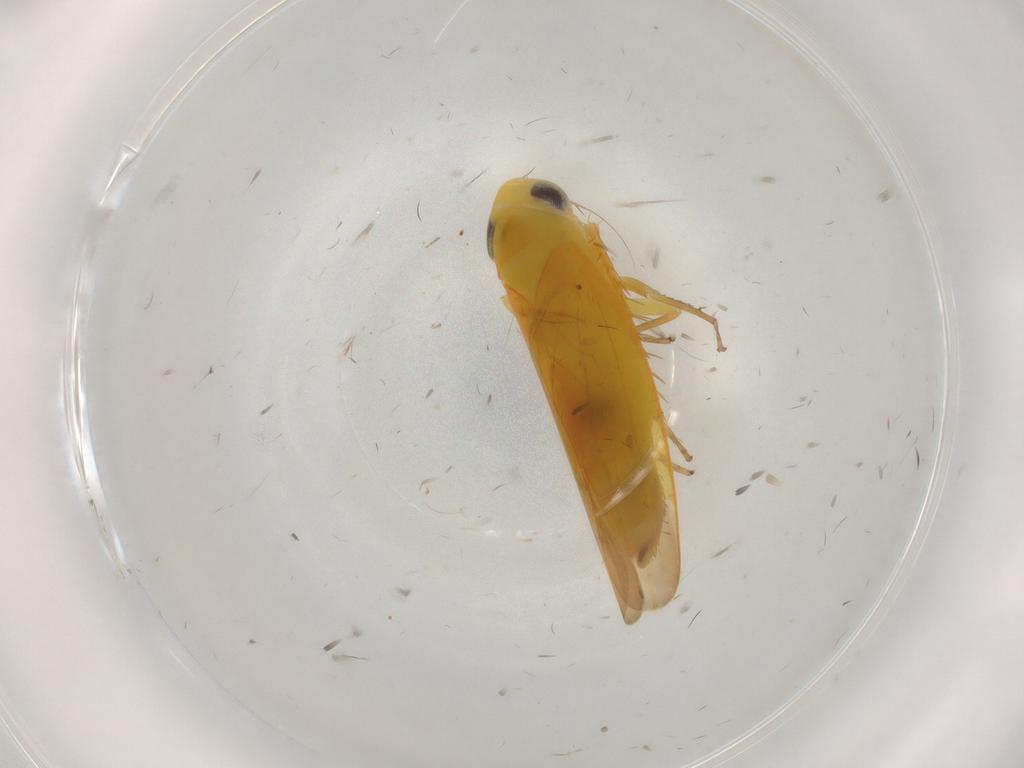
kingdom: Animalia
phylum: Arthropoda
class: Insecta
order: Hemiptera
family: Cicadellidae
